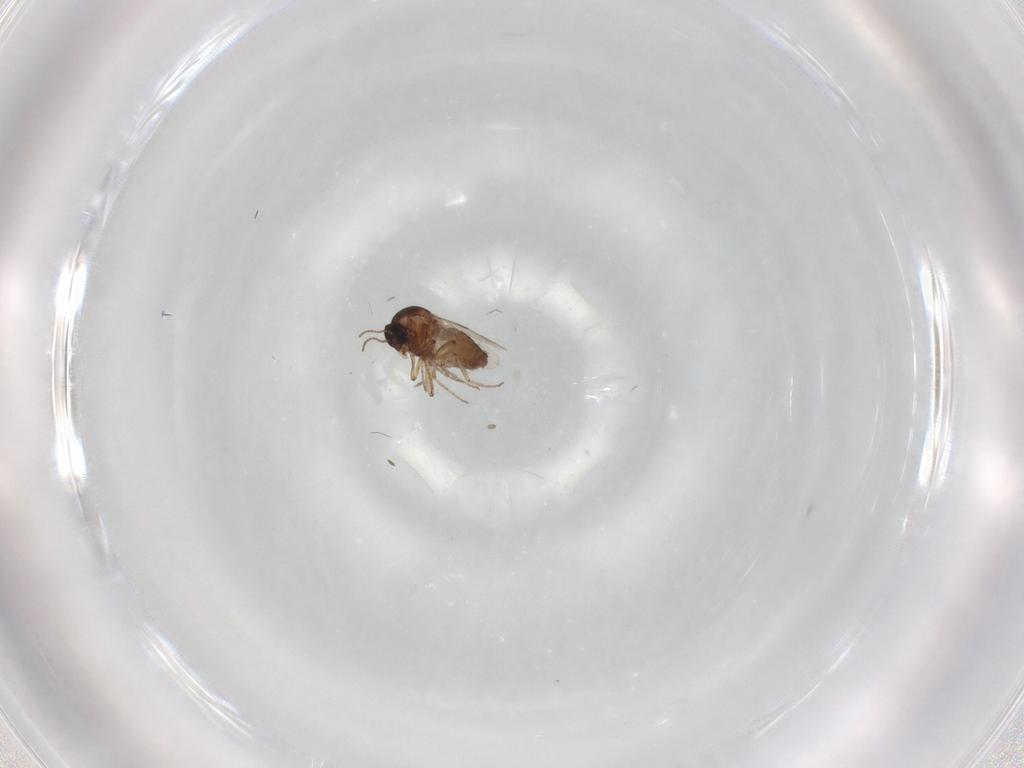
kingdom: Animalia
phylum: Arthropoda
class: Insecta
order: Diptera
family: Ceratopogonidae
